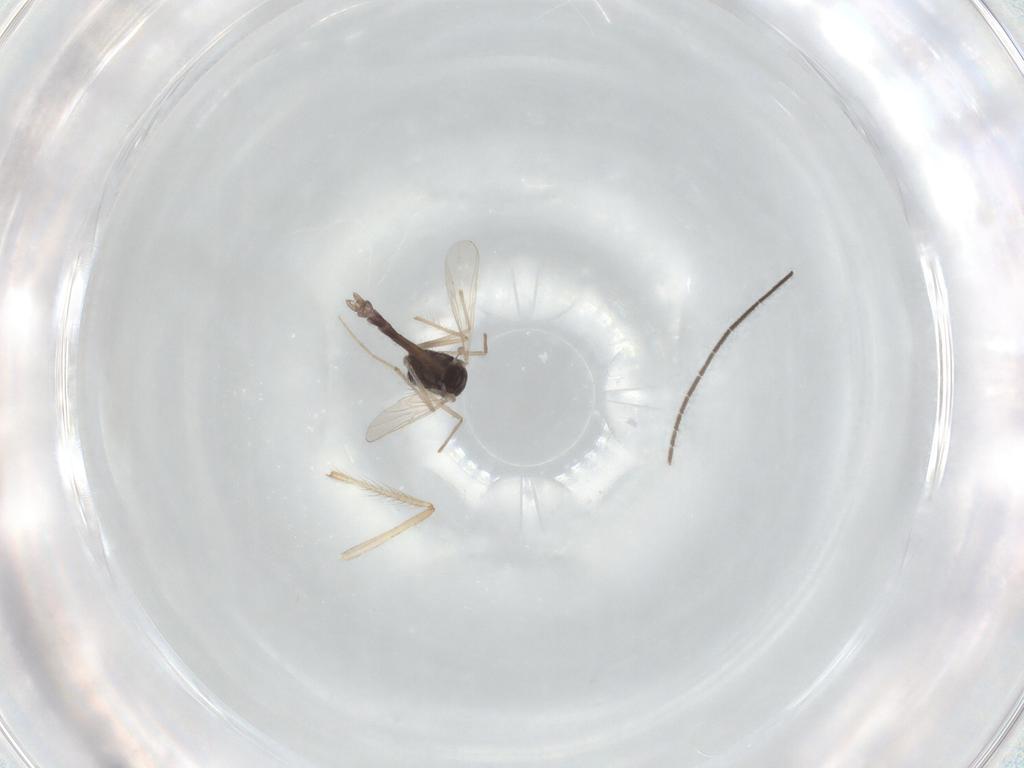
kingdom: Animalia
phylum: Arthropoda
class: Insecta
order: Diptera
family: Chironomidae
